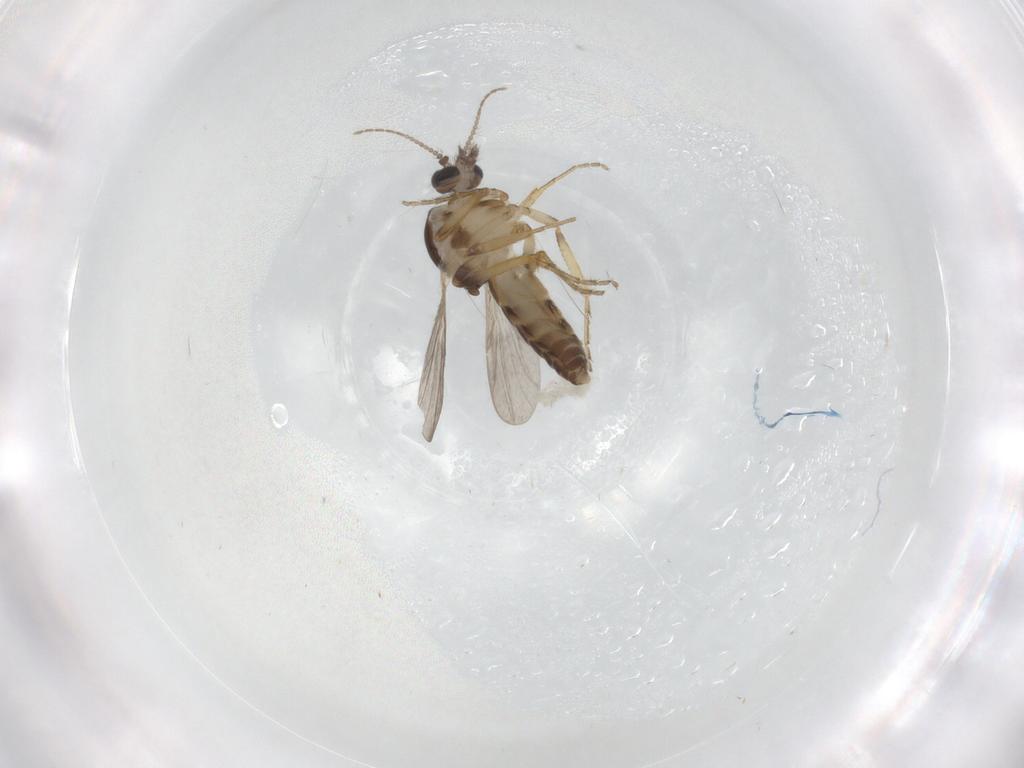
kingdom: Animalia
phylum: Arthropoda
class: Insecta
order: Diptera
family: Ceratopogonidae
